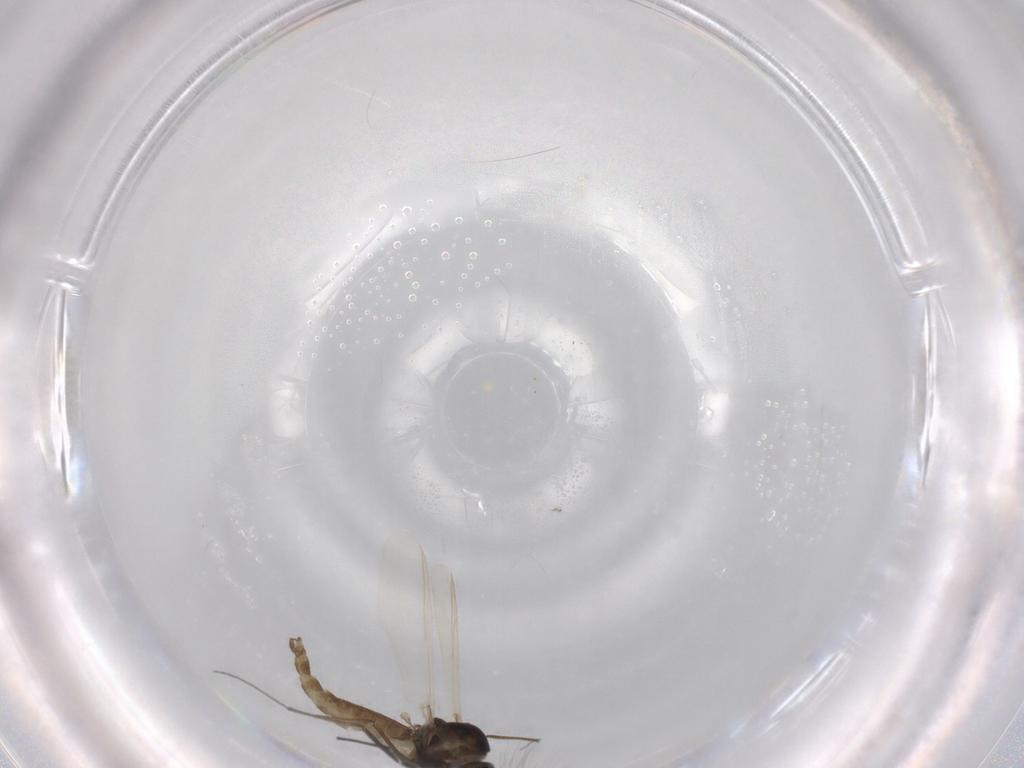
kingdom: Animalia
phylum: Arthropoda
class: Insecta
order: Diptera
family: Chironomidae
